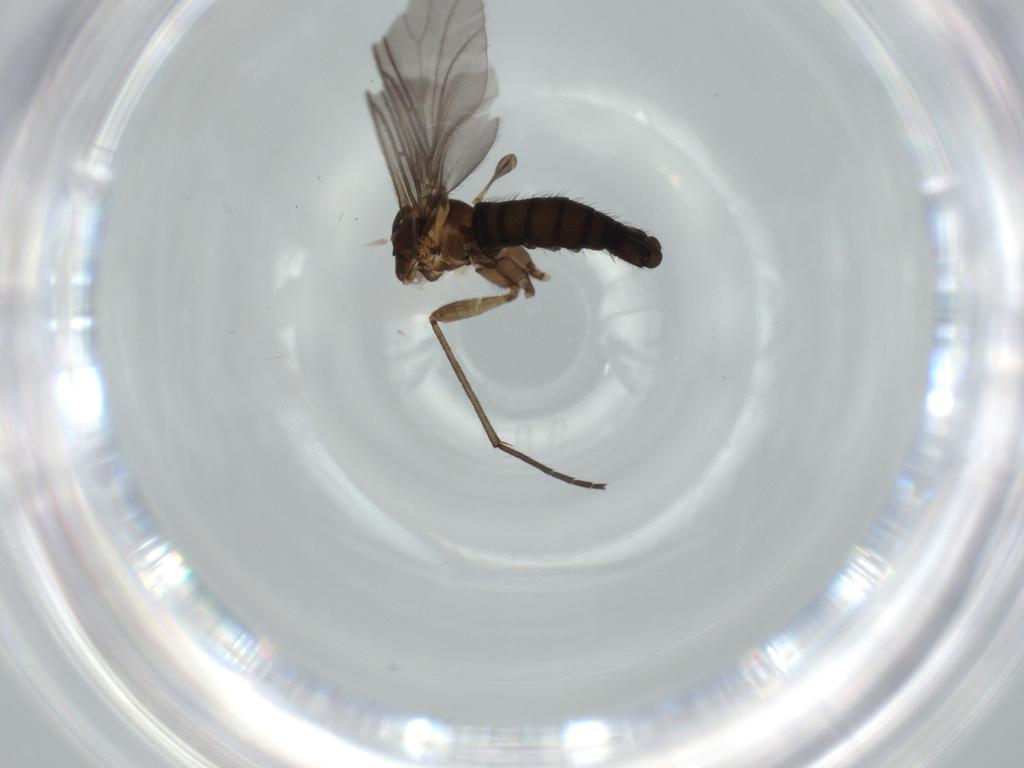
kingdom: Animalia
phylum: Arthropoda
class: Insecta
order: Diptera
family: Sciaridae
